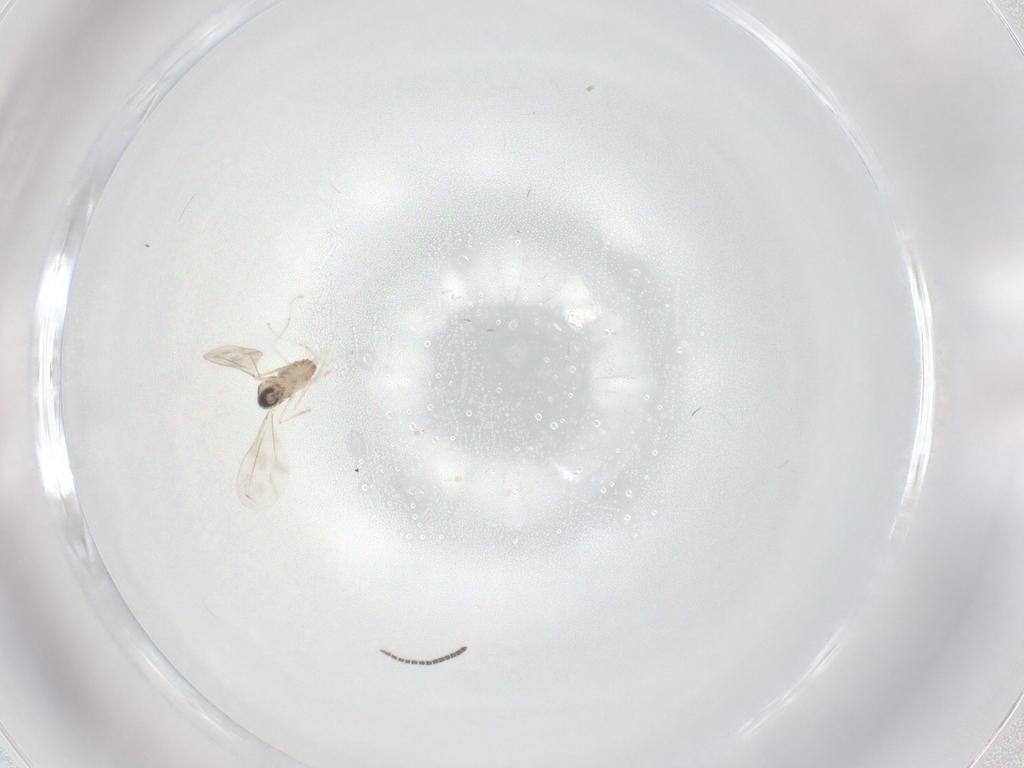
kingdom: Animalia
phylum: Arthropoda
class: Insecta
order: Diptera
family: Sciaridae
